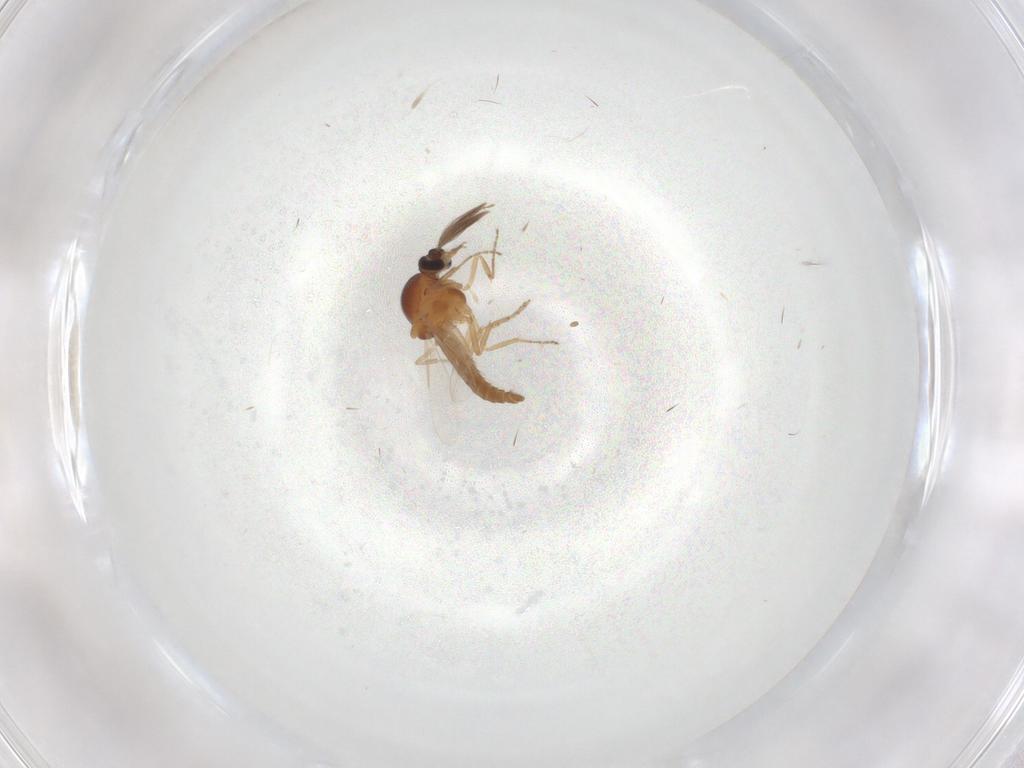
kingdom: Animalia
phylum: Arthropoda
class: Insecta
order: Diptera
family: Ceratopogonidae
